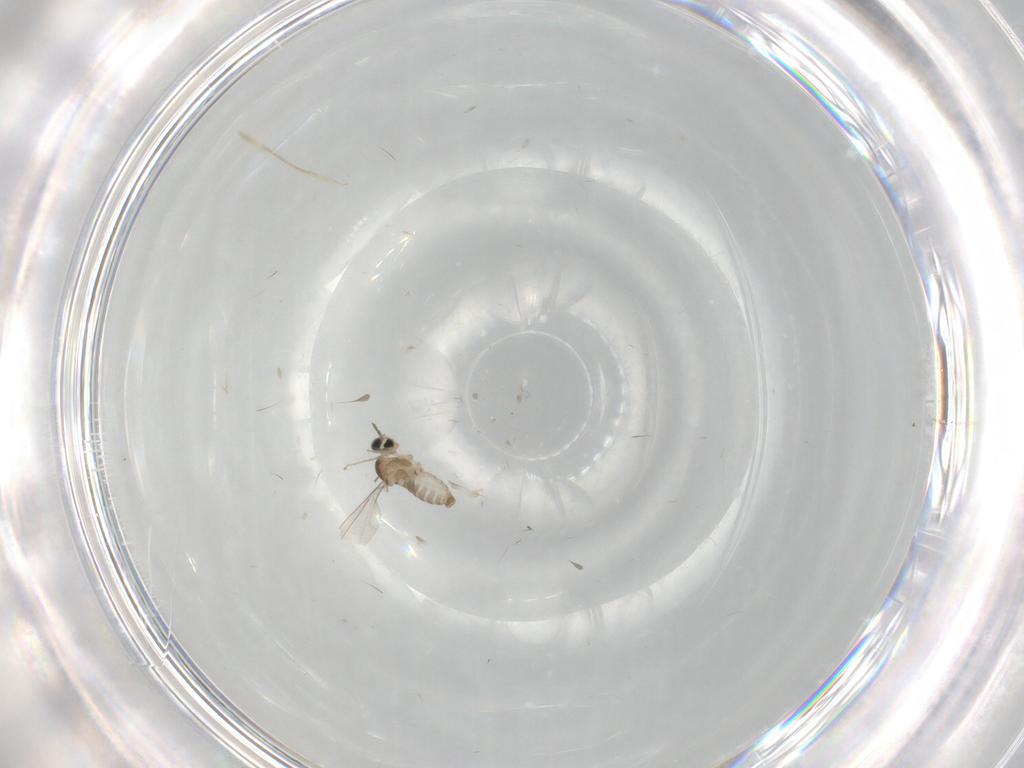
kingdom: Animalia
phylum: Arthropoda
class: Insecta
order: Diptera
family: Cecidomyiidae
